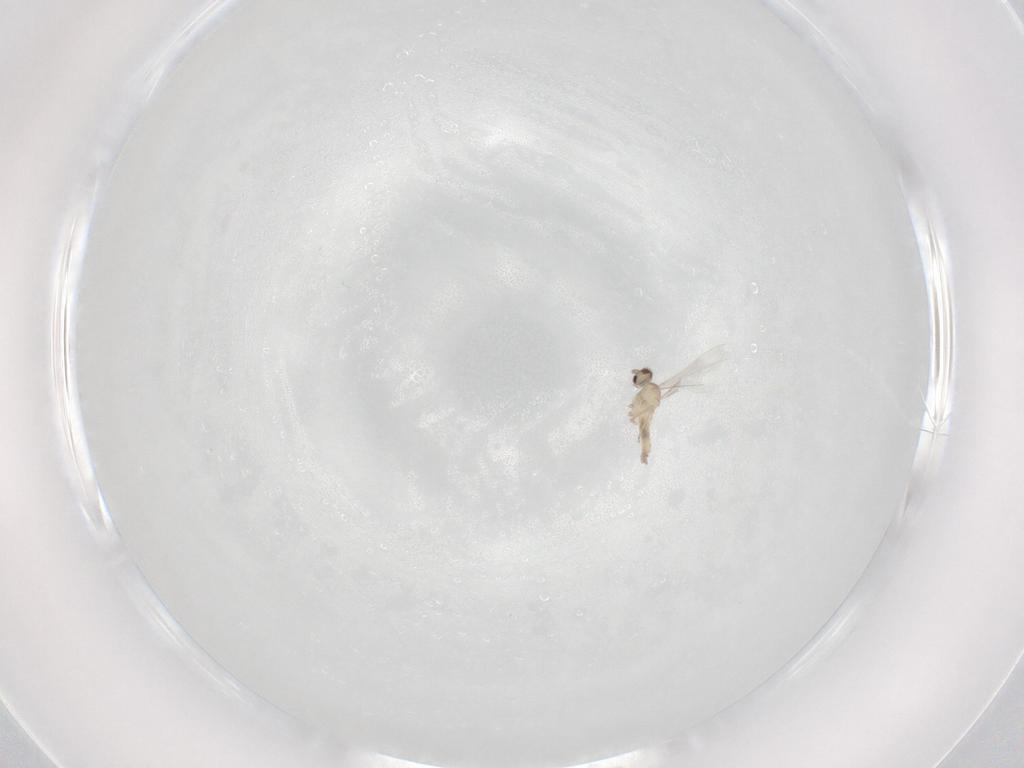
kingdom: Animalia
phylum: Arthropoda
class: Insecta
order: Diptera
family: Cecidomyiidae
